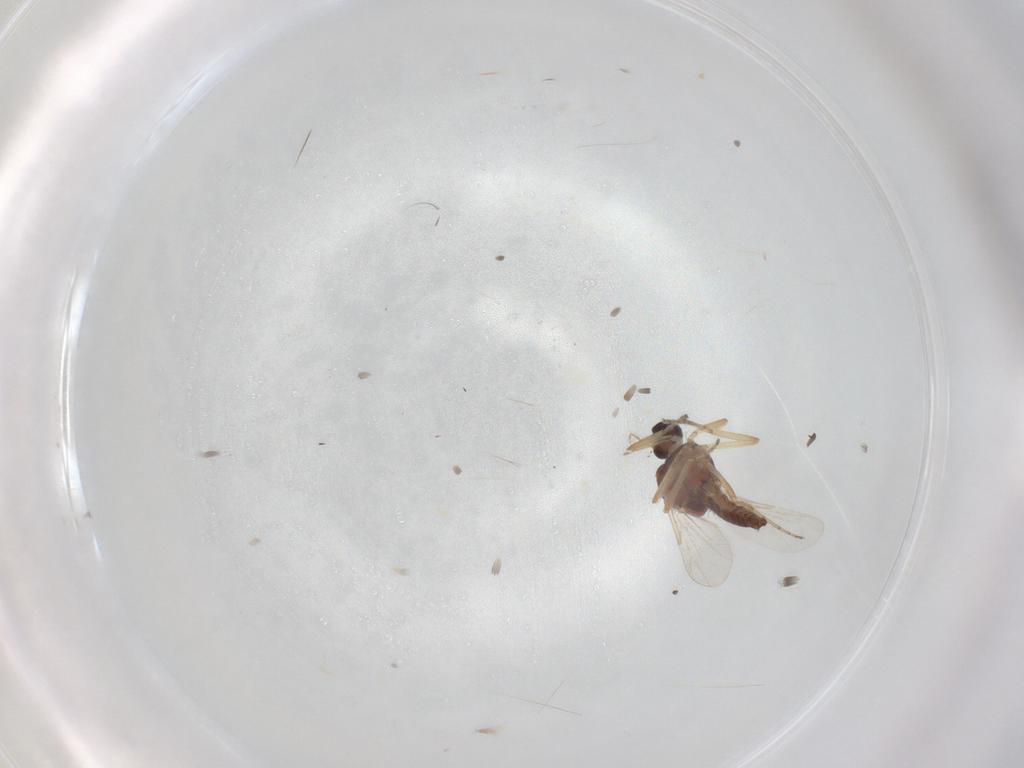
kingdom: Animalia
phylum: Arthropoda
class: Insecta
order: Diptera
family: Ceratopogonidae
